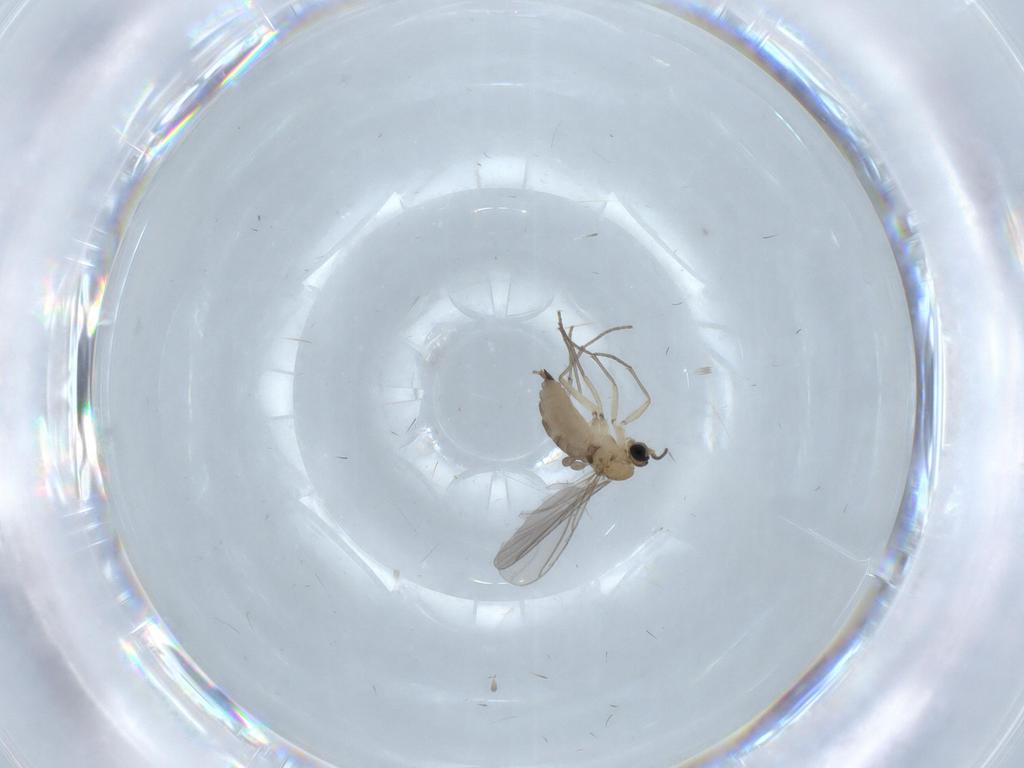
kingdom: Animalia
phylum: Arthropoda
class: Insecta
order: Diptera
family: Sciaridae
